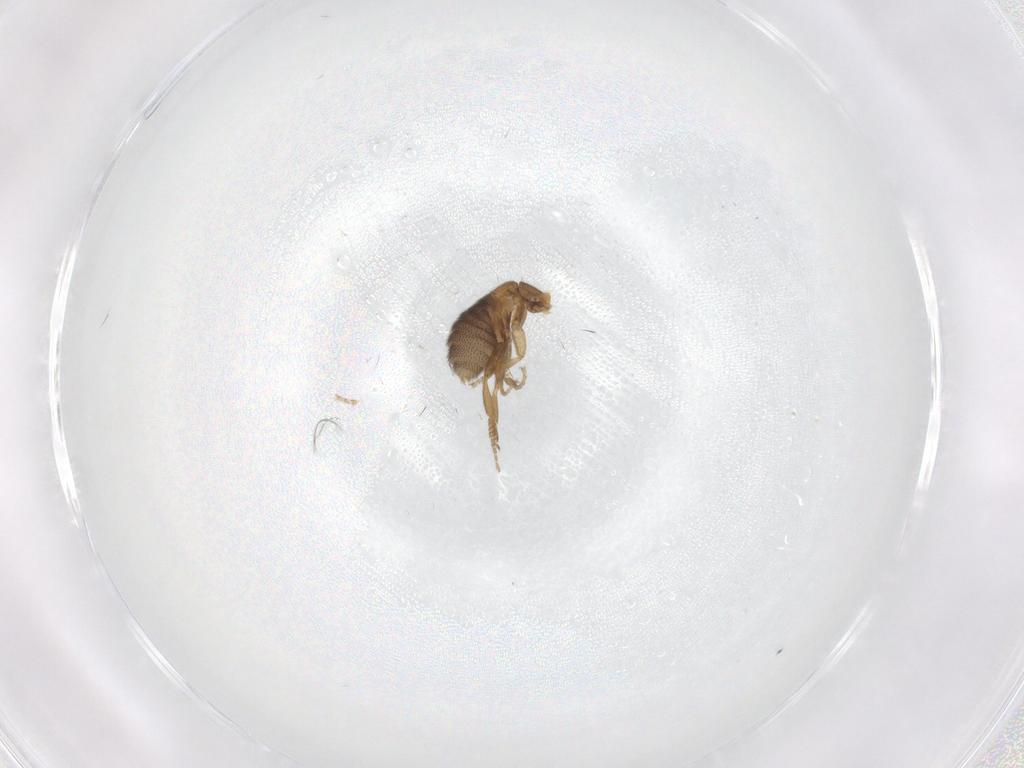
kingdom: Animalia
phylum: Arthropoda
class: Insecta
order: Diptera
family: Phoridae
